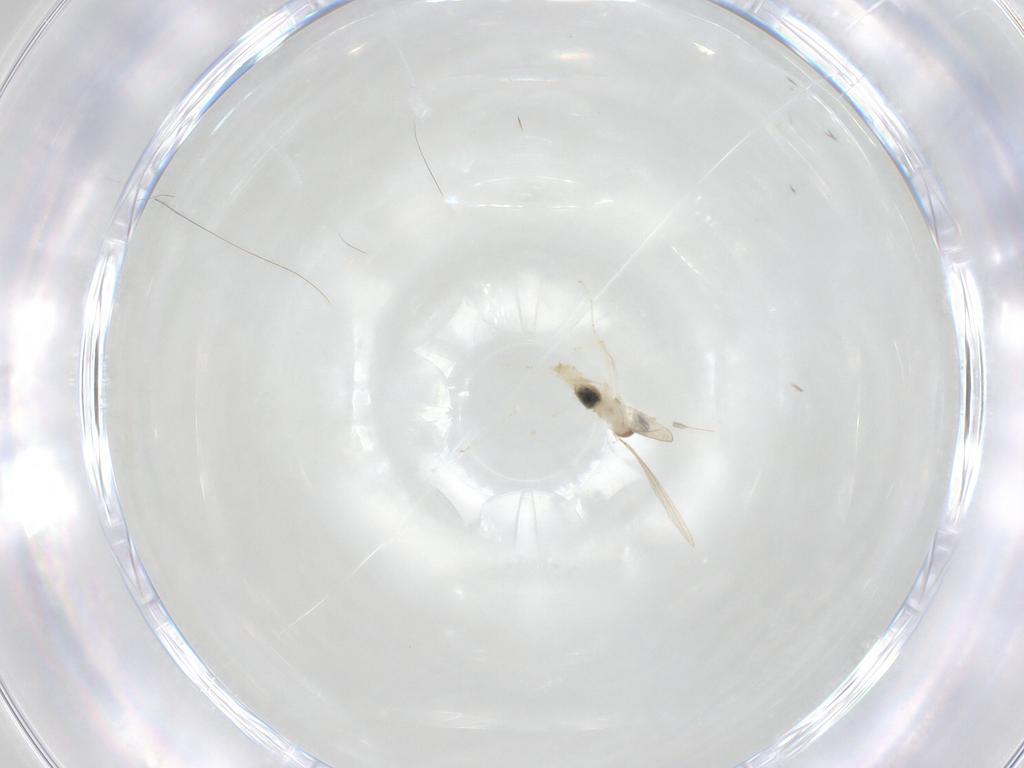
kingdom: Animalia
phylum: Arthropoda
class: Insecta
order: Diptera
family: Cecidomyiidae
